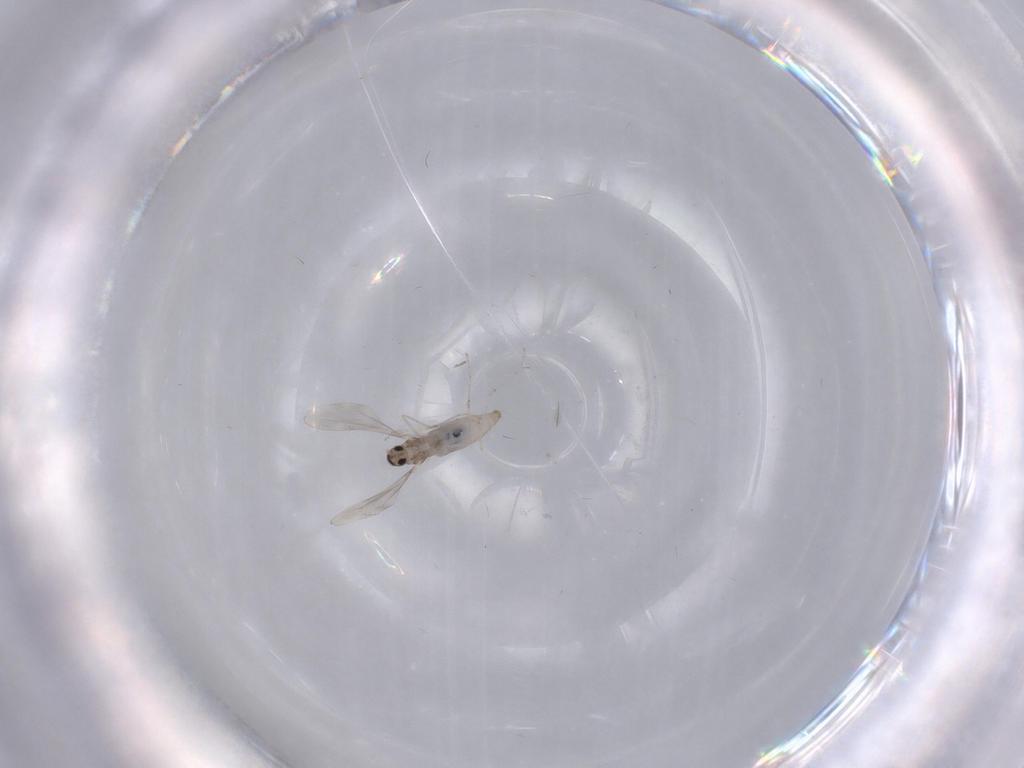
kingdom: Animalia
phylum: Arthropoda
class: Insecta
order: Diptera
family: Cecidomyiidae
